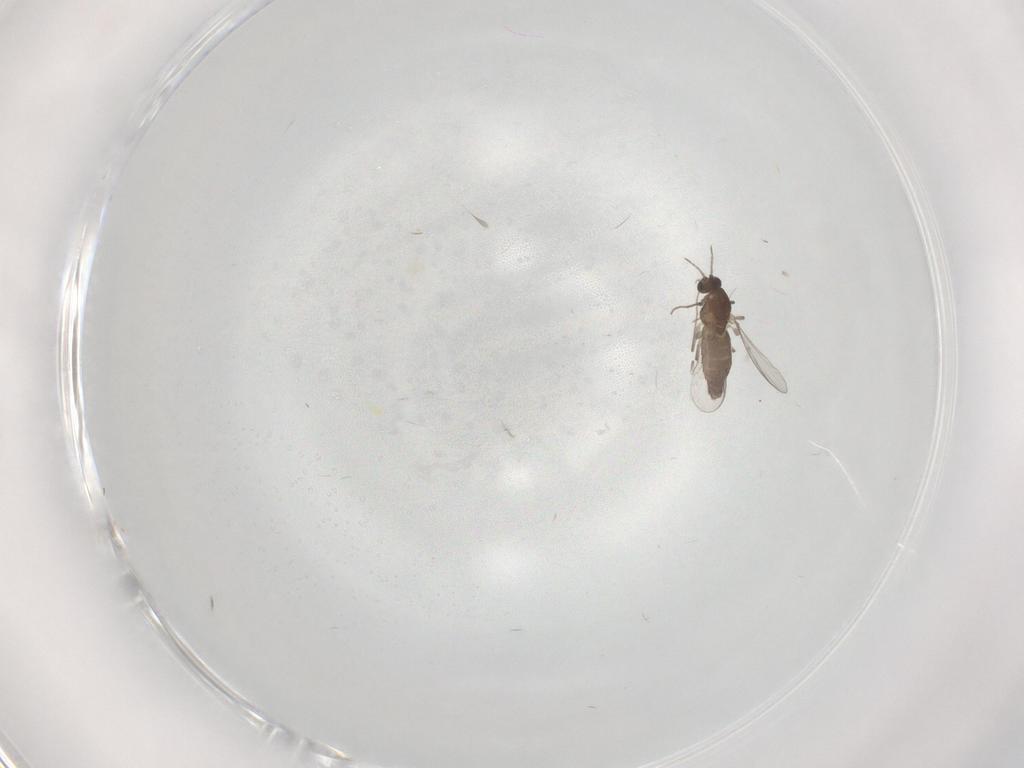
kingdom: Animalia
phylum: Arthropoda
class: Insecta
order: Diptera
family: Chironomidae
